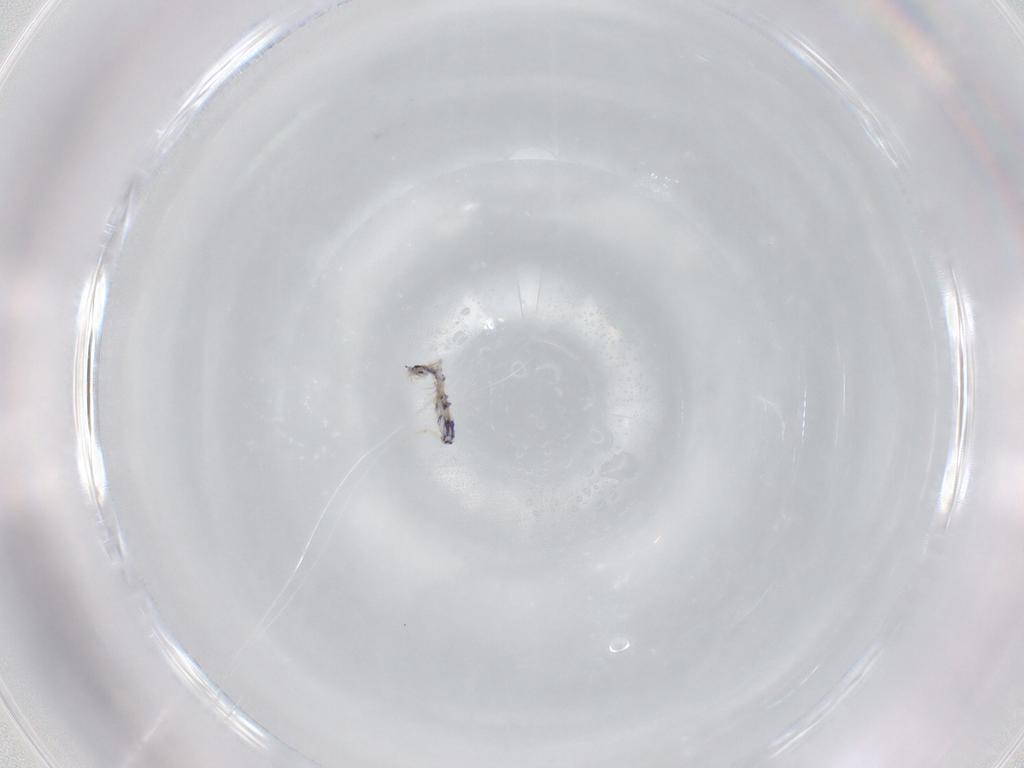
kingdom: Animalia
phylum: Arthropoda
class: Collembola
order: Entomobryomorpha
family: Entomobryidae
